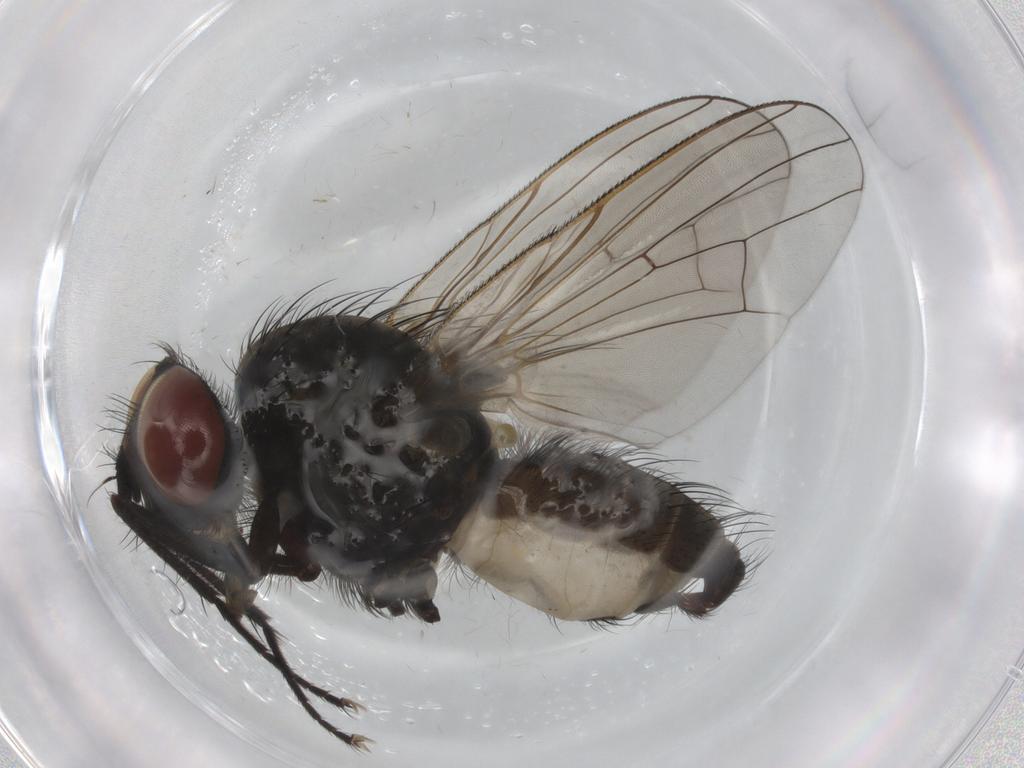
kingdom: Animalia
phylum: Arthropoda
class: Insecta
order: Diptera
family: Anthomyiidae
